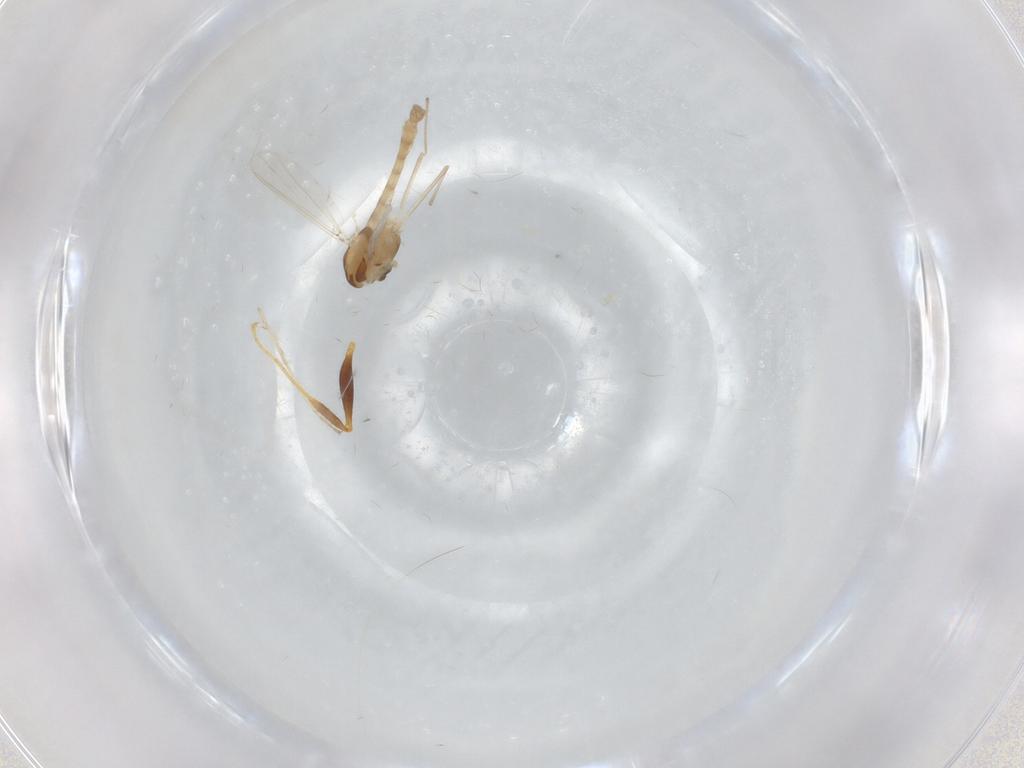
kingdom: Animalia
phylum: Arthropoda
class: Insecta
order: Diptera
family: Chironomidae
